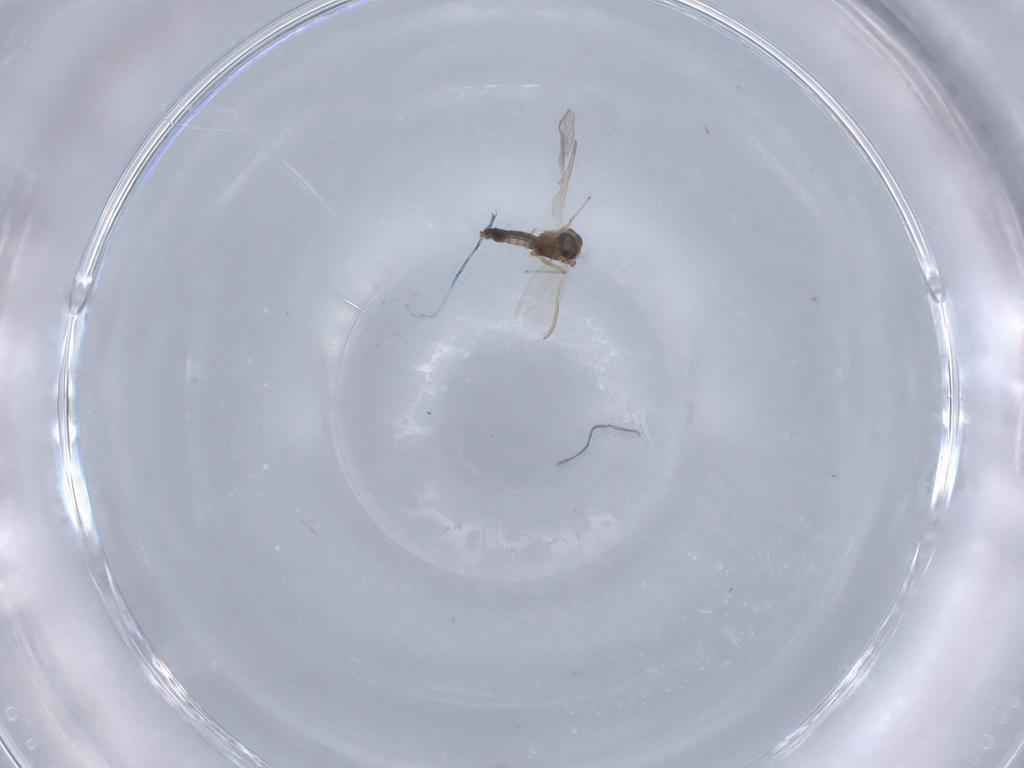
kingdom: Animalia
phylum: Arthropoda
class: Insecta
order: Diptera
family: Chironomidae
